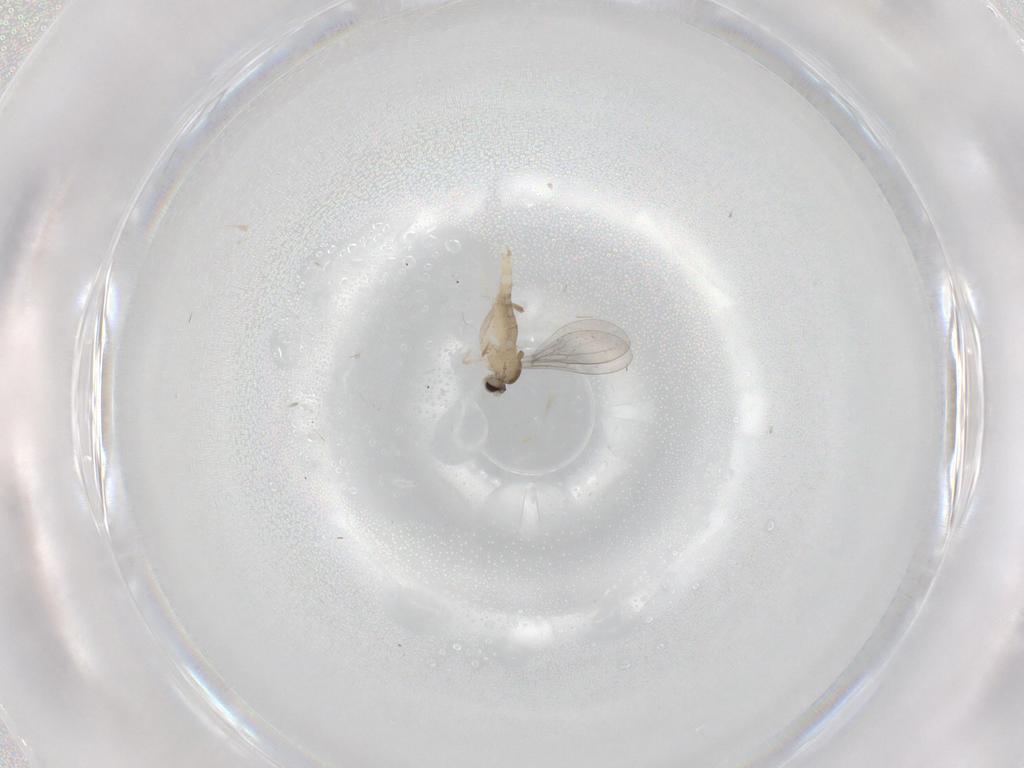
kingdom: Animalia
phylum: Arthropoda
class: Insecta
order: Diptera
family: Cecidomyiidae
